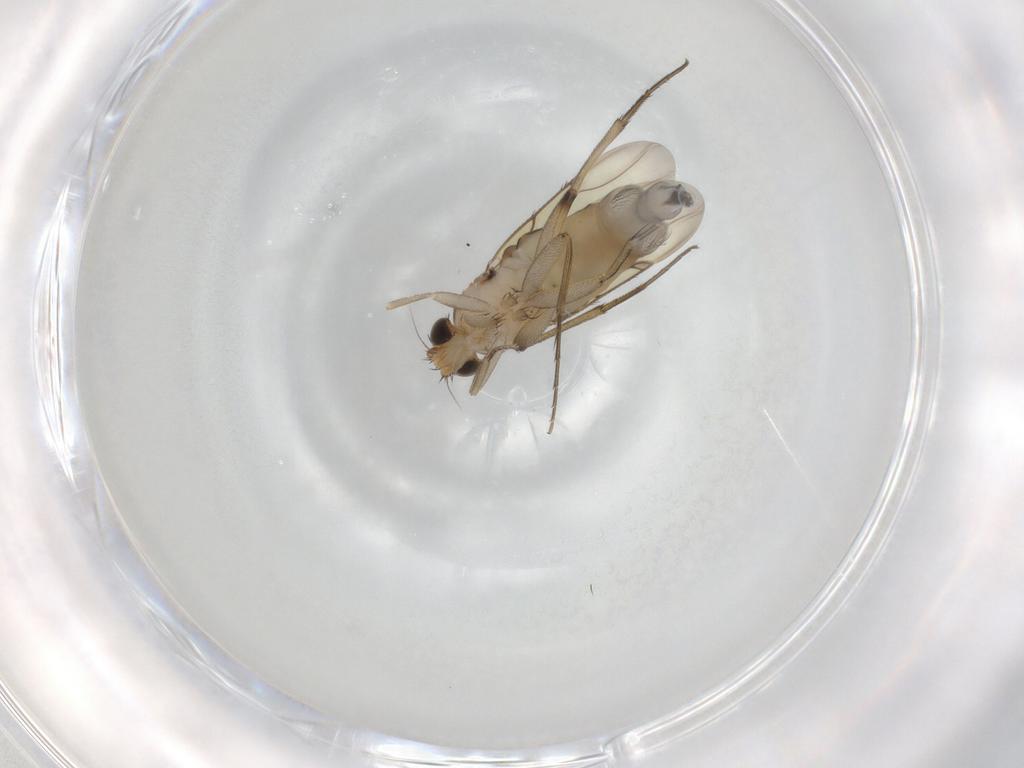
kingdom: Animalia
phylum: Arthropoda
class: Insecta
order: Diptera
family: Phoridae
